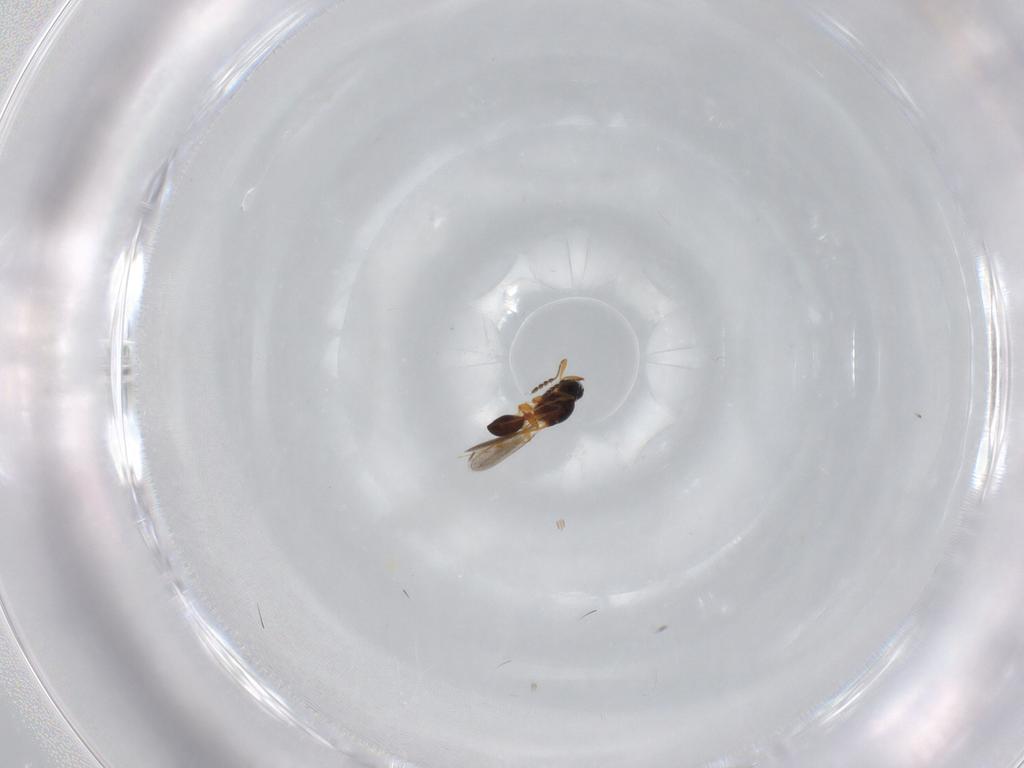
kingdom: Animalia
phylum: Arthropoda
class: Insecta
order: Hymenoptera
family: Platygastridae
